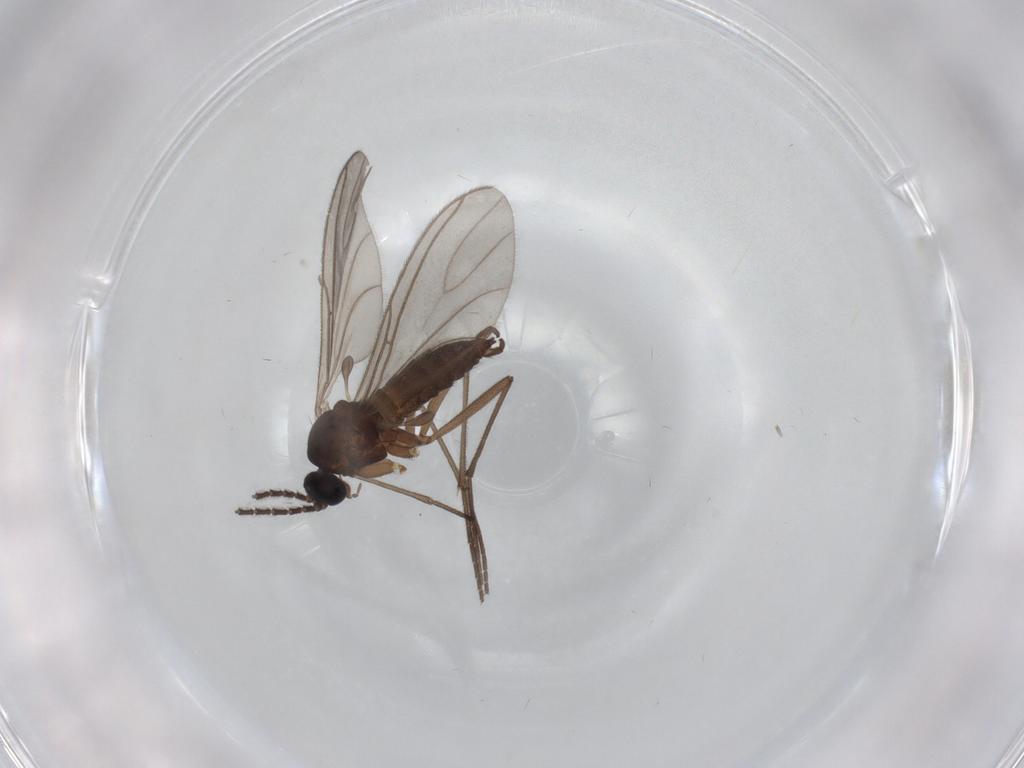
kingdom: Animalia
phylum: Arthropoda
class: Insecta
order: Diptera
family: Sciaridae
